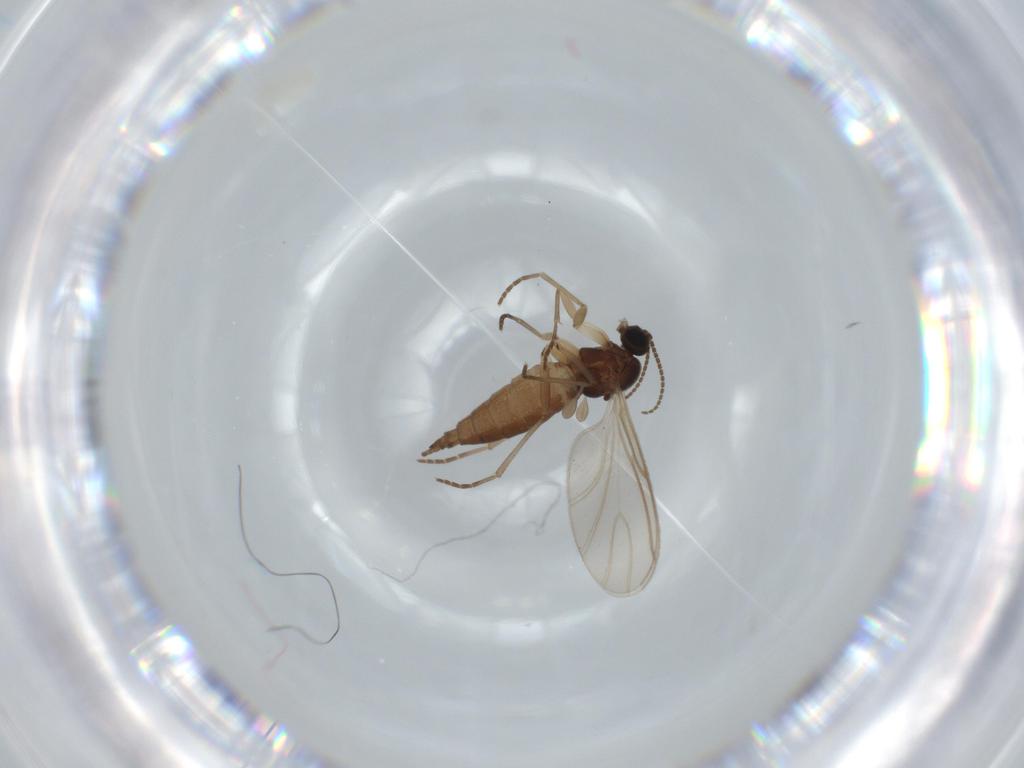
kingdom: Animalia
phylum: Arthropoda
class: Insecta
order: Diptera
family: Sciaridae
